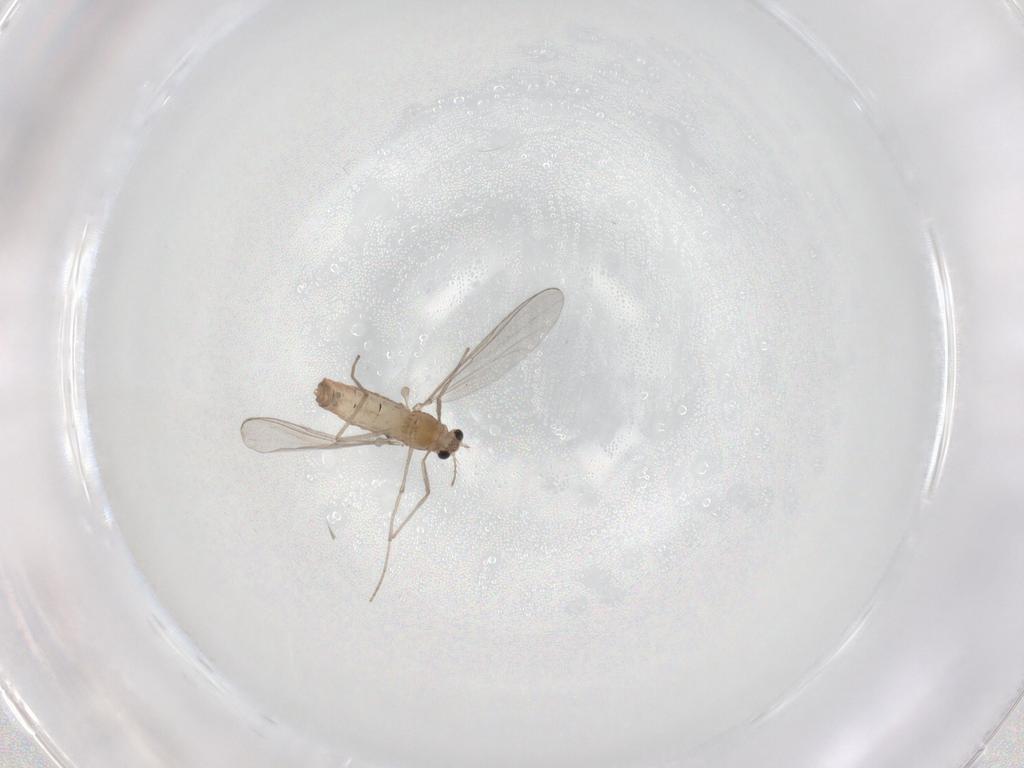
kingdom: Animalia
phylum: Arthropoda
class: Insecta
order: Diptera
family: Chironomidae
